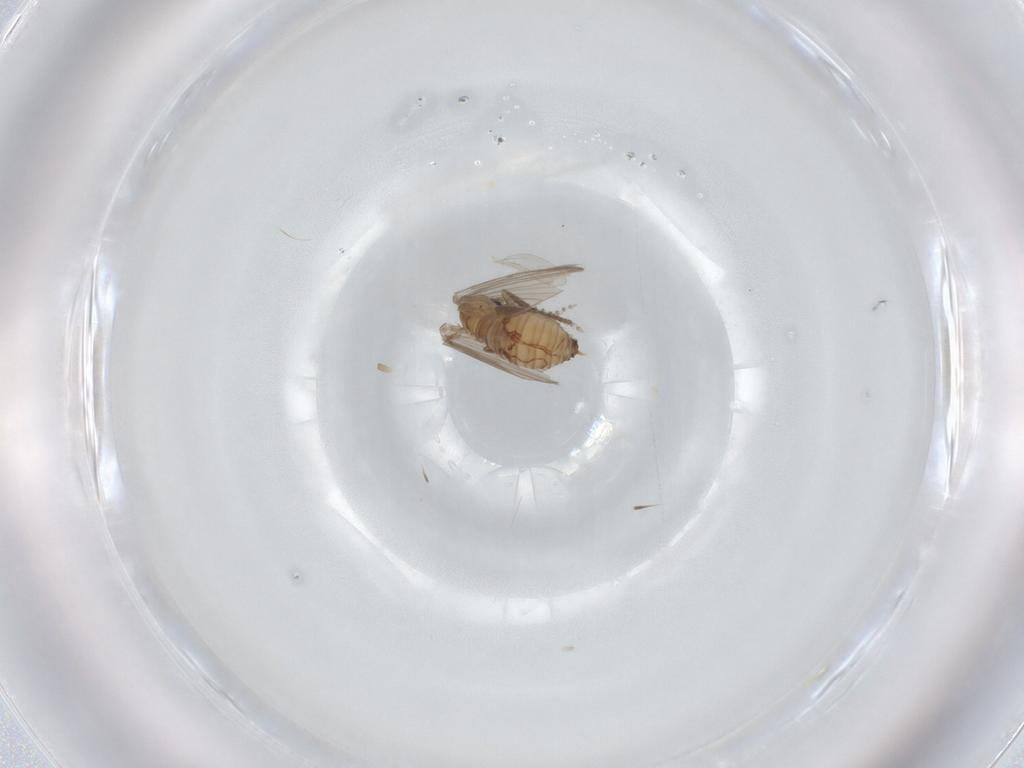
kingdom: Animalia
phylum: Arthropoda
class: Insecta
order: Diptera
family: Psychodidae
